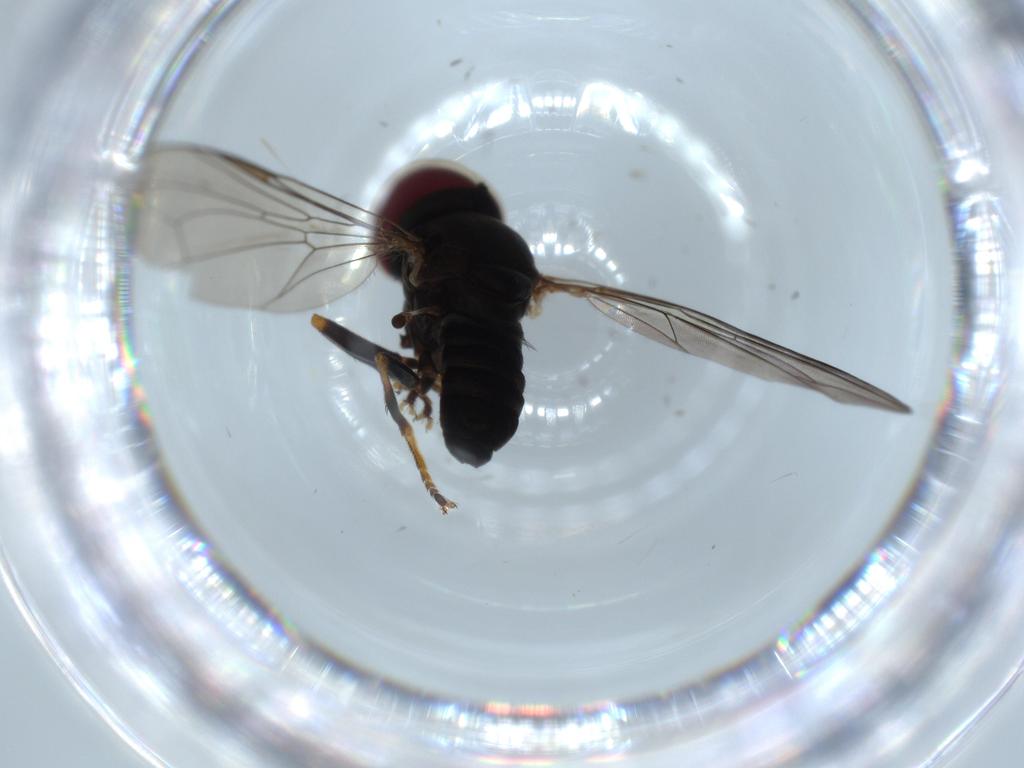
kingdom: Animalia
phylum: Arthropoda
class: Insecta
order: Diptera
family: Pipunculidae
